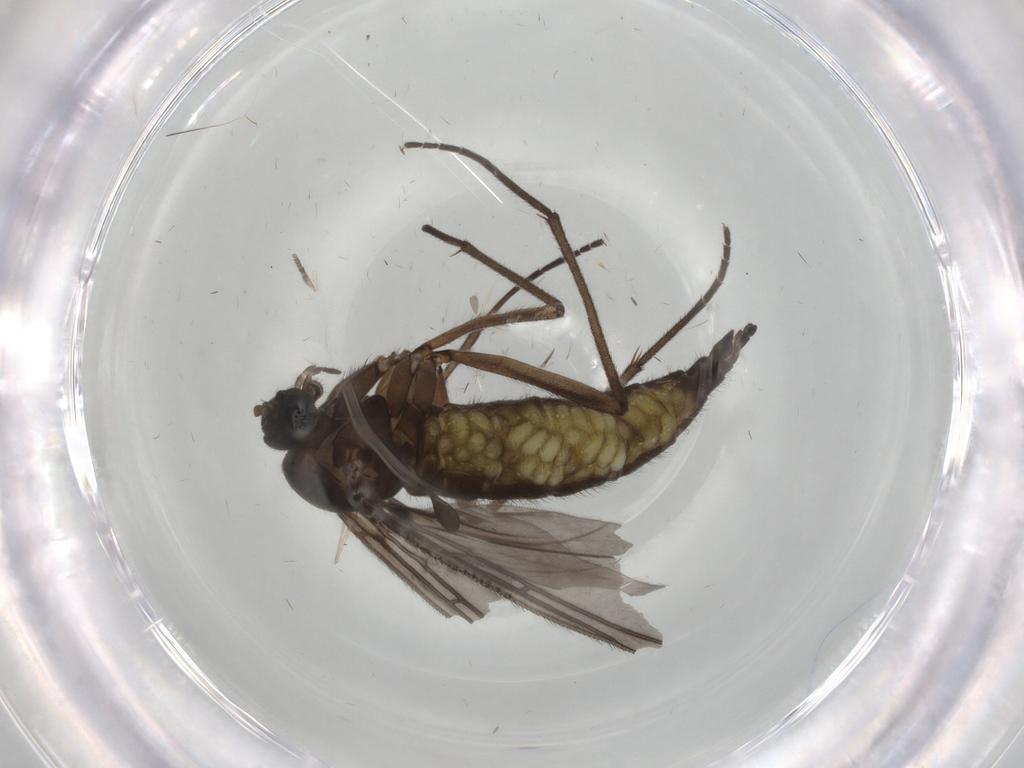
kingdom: Animalia
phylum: Arthropoda
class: Insecta
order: Diptera
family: Sciaridae
